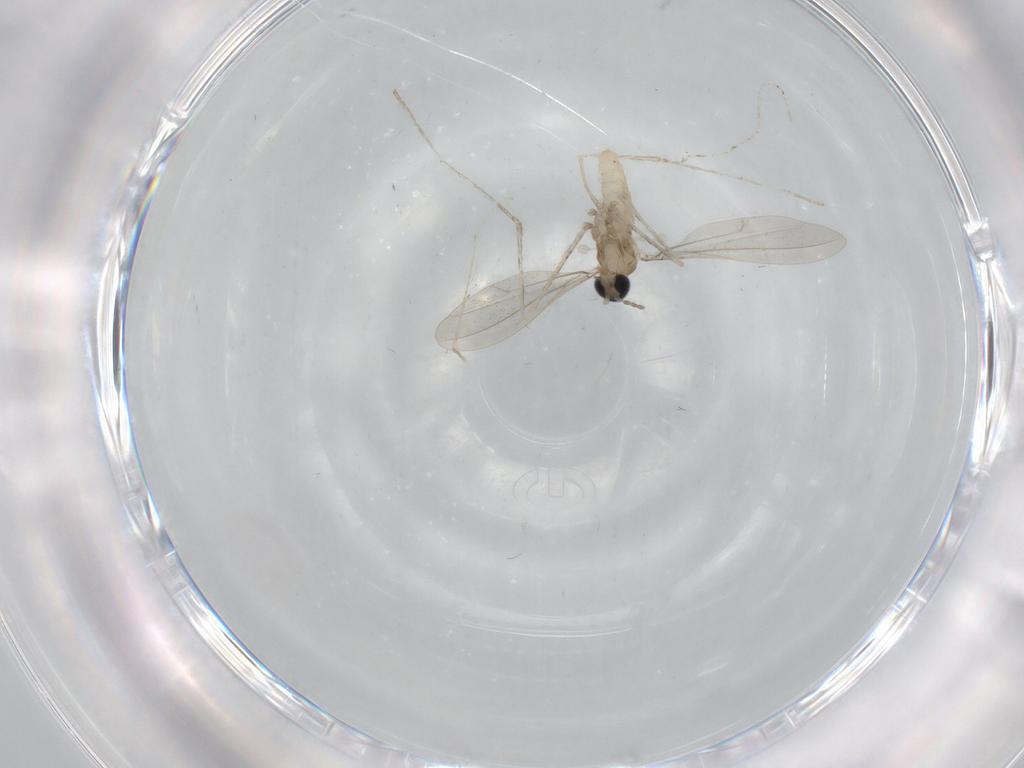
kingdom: Animalia
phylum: Arthropoda
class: Insecta
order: Diptera
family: Cecidomyiidae
